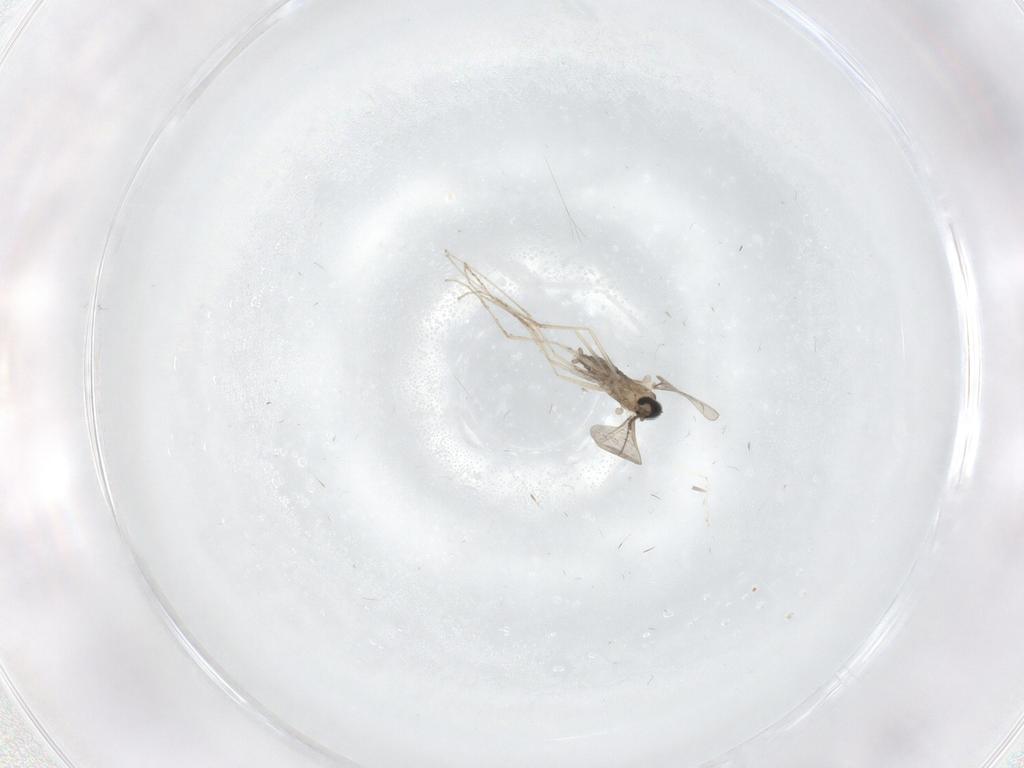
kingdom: Animalia
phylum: Arthropoda
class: Insecta
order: Diptera
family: Cecidomyiidae
